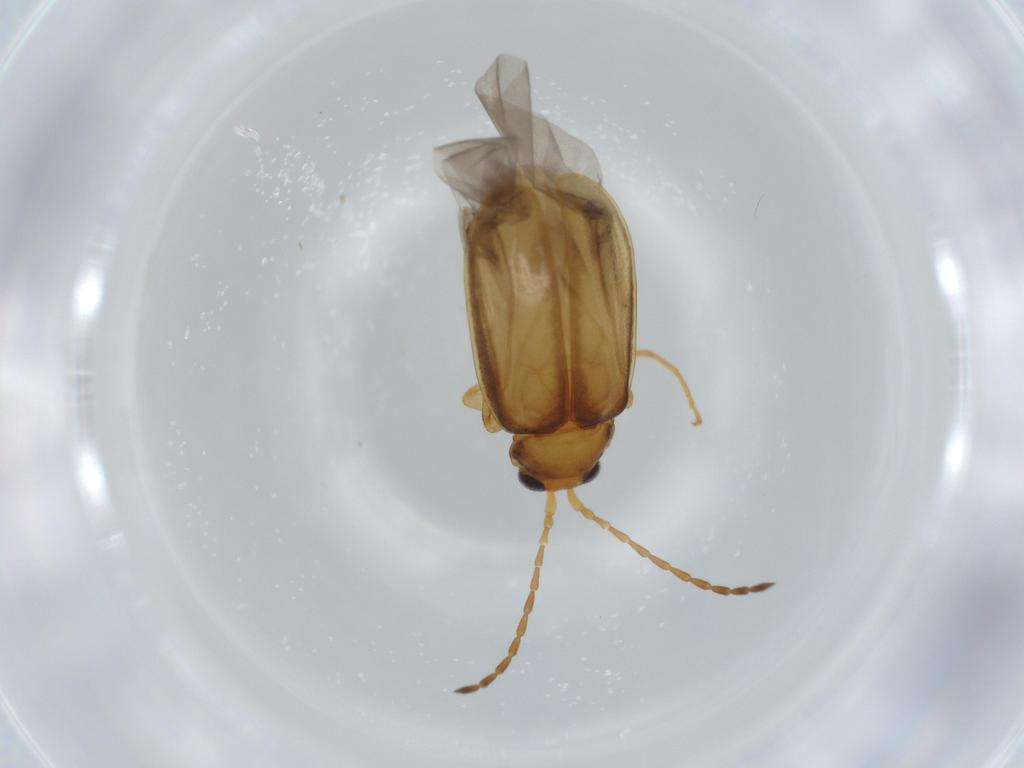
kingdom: Animalia
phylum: Arthropoda
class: Insecta
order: Coleoptera
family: Chrysomelidae
